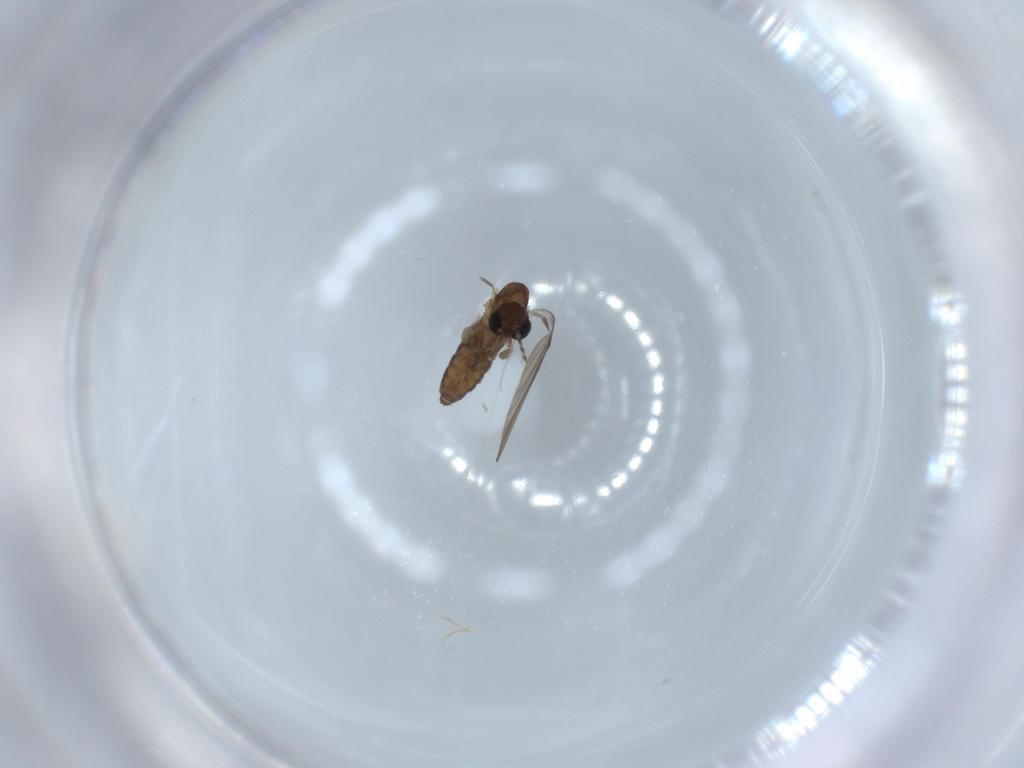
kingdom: Animalia
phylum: Arthropoda
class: Insecta
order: Diptera
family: Psychodidae
